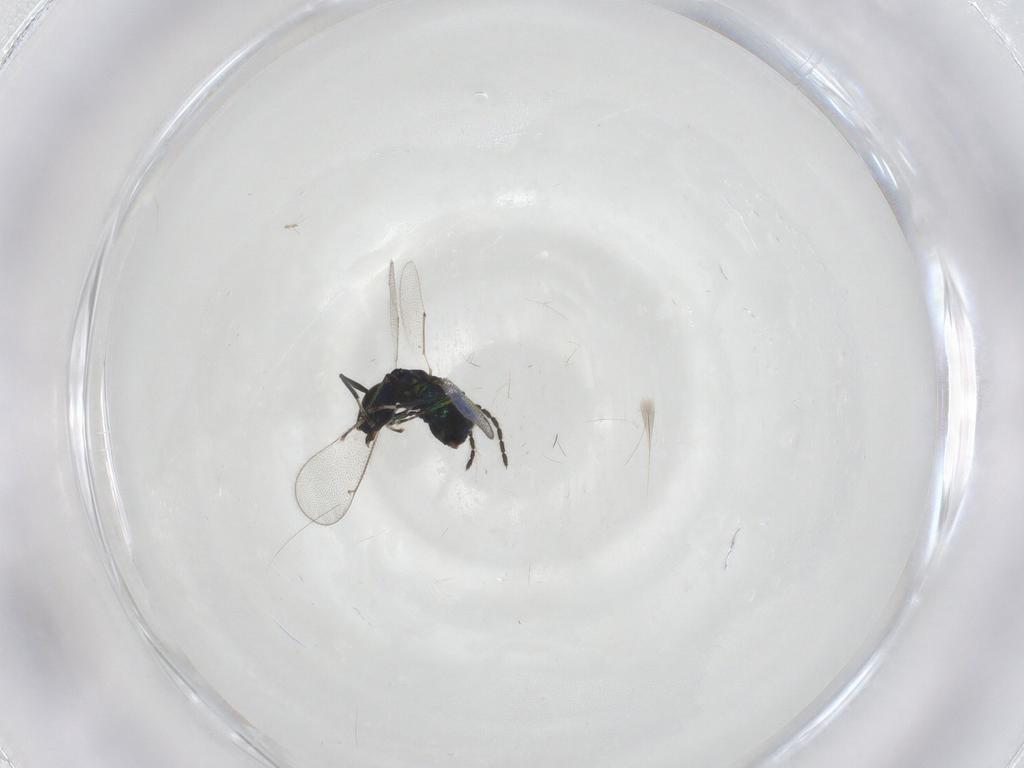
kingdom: Animalia
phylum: Arthropoda
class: Insecta
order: Hymenoptera
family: Eulophidae
